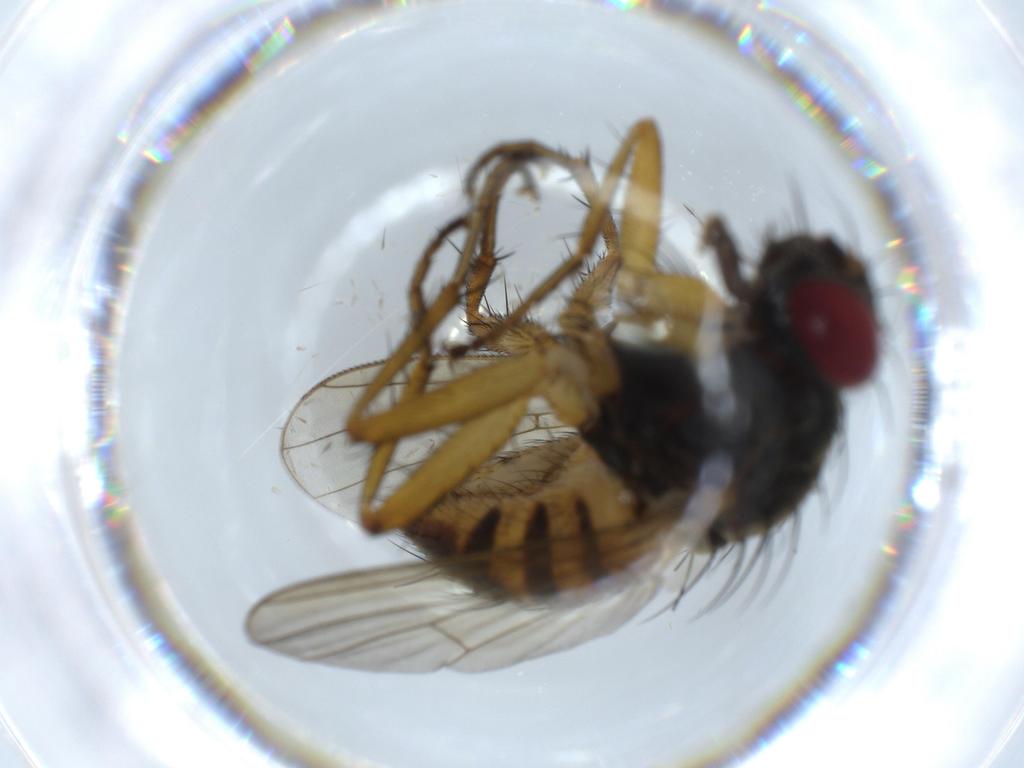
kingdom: Animalia
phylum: Arthropoda
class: Insecta
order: Diptera
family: Muscidae
